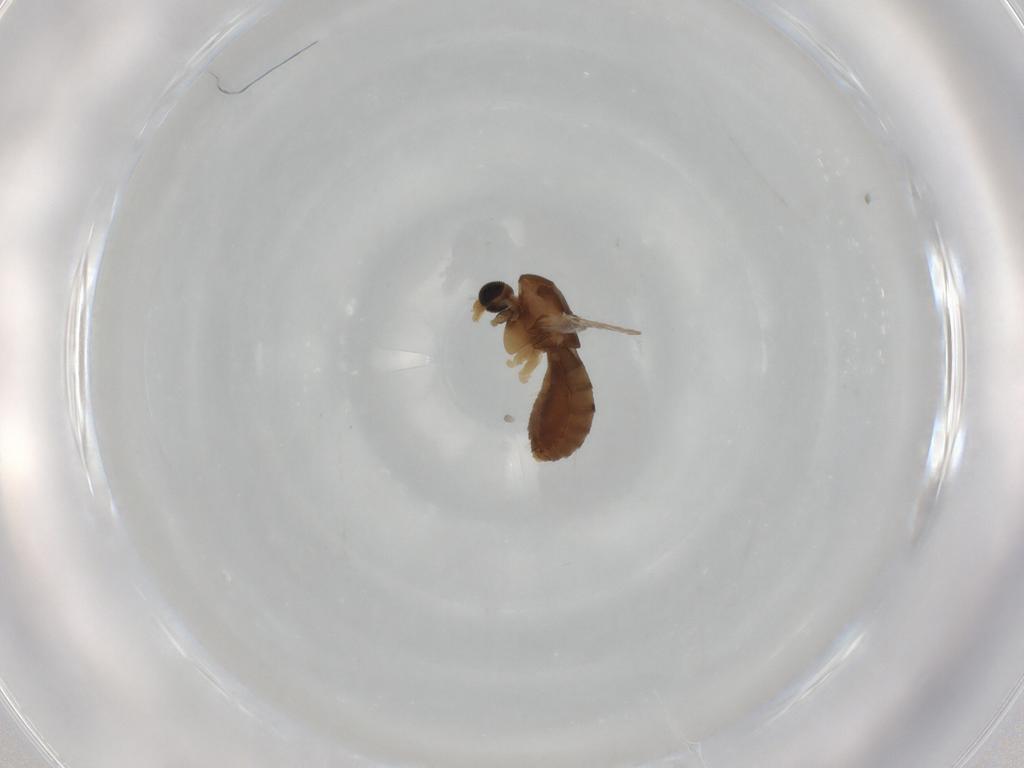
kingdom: Animalia
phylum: Arthropoda
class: Insecta
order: Diptera
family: Chironomidae
